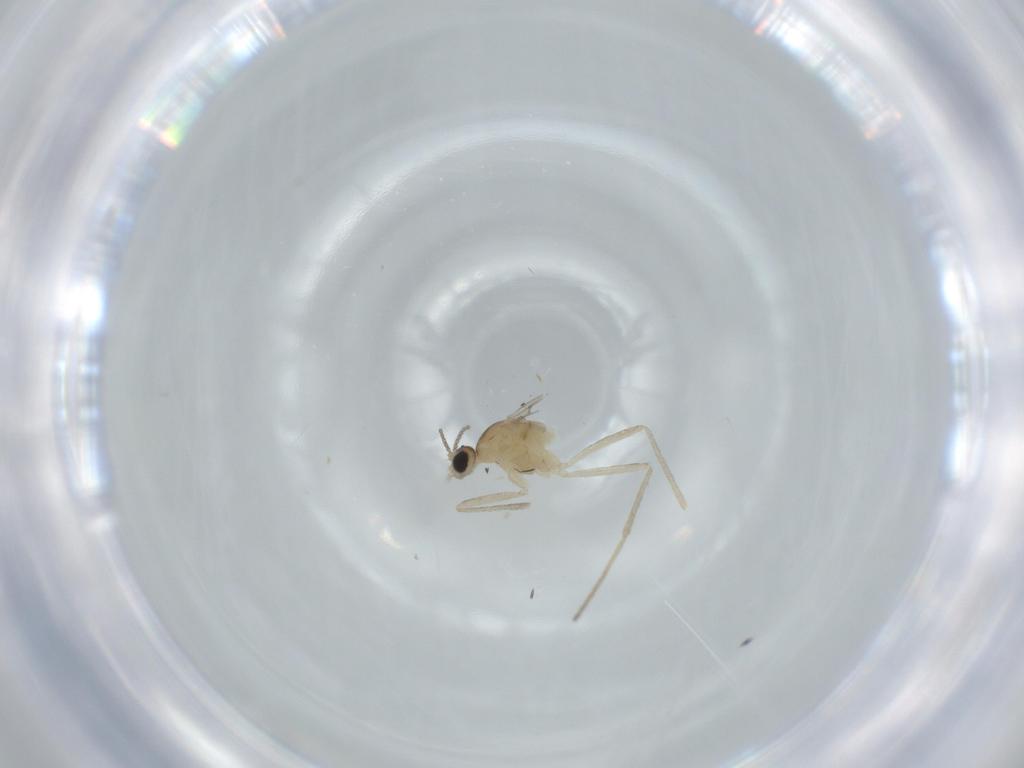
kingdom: Animalia
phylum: Arthropoda
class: Insecta
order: Diptera
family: Cecidomyiidae
